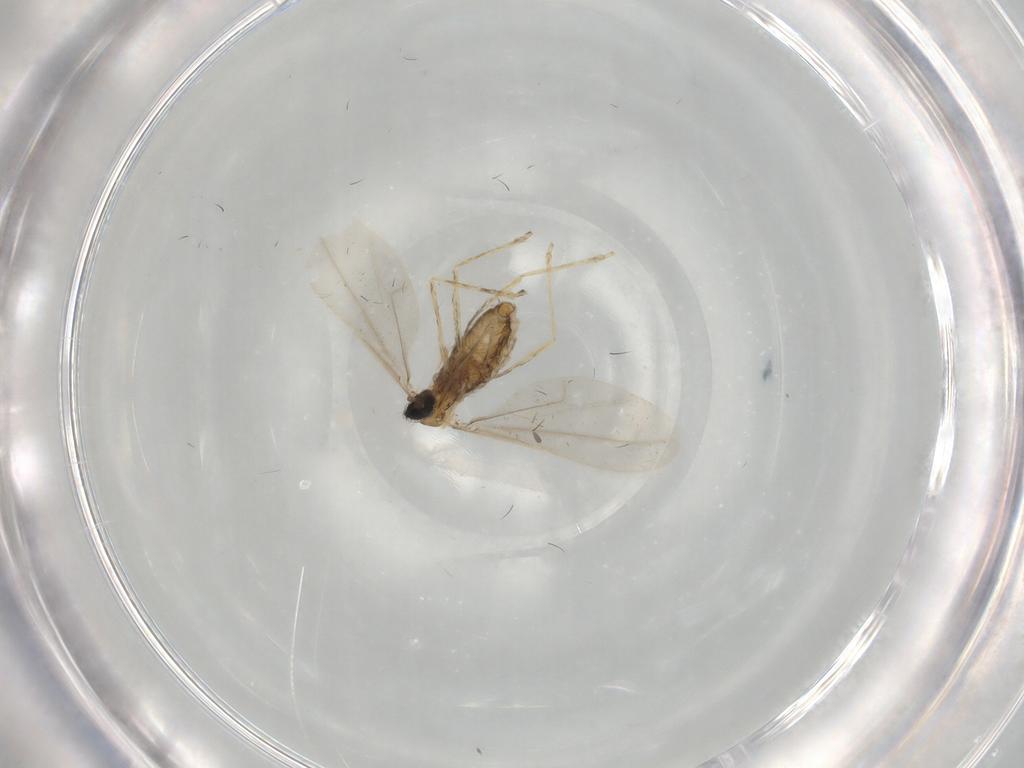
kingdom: Animalia
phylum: Arthropoda
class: Insecta
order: Diptera
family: Cecidomyiidae
